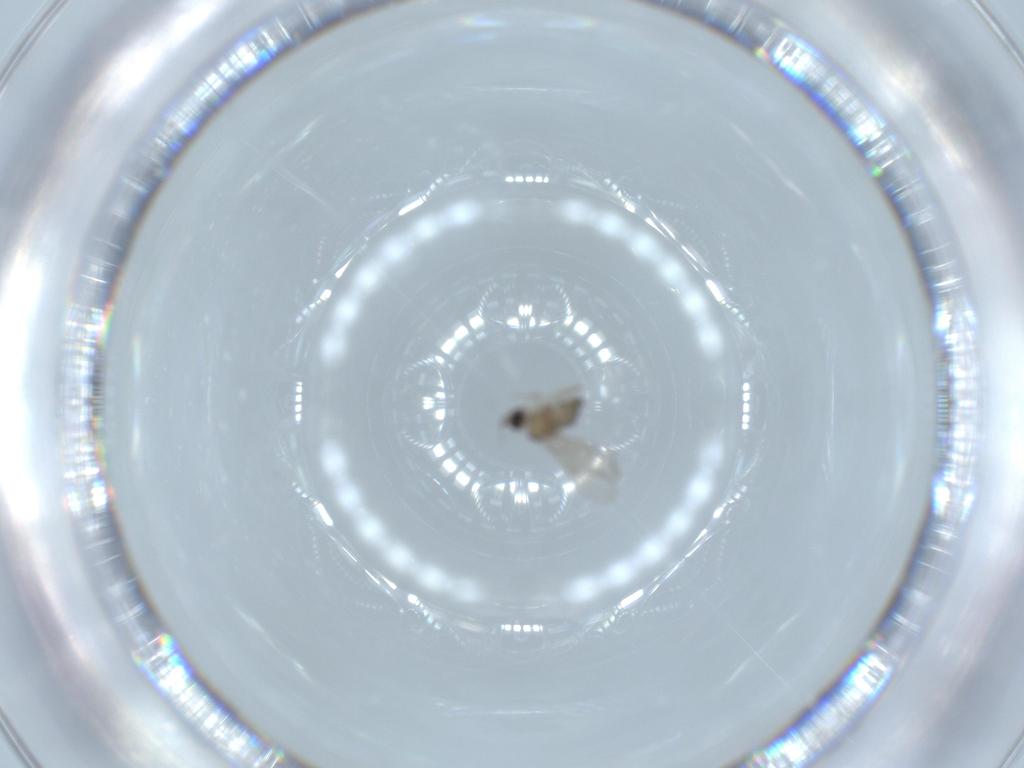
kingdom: Animalia
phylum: Arthropoda
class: Insecta
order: Diptera
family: Cecidomyiidae
